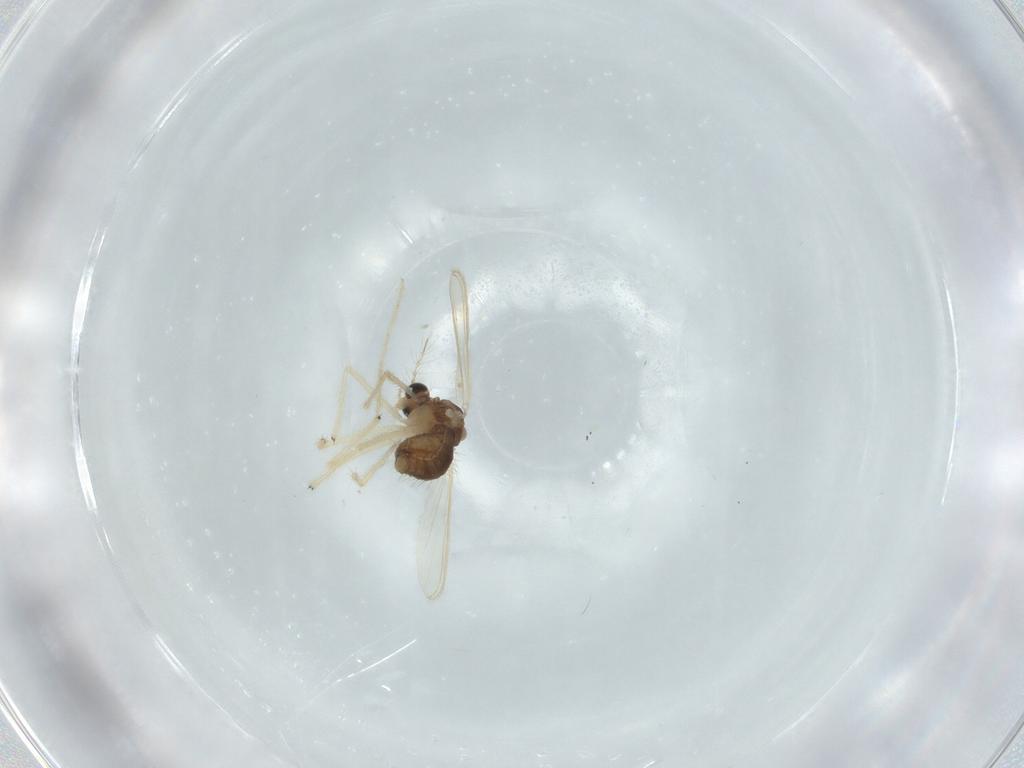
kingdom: Animalia
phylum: Arthropoda
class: Insecta
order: Diptera
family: Chironomidae
